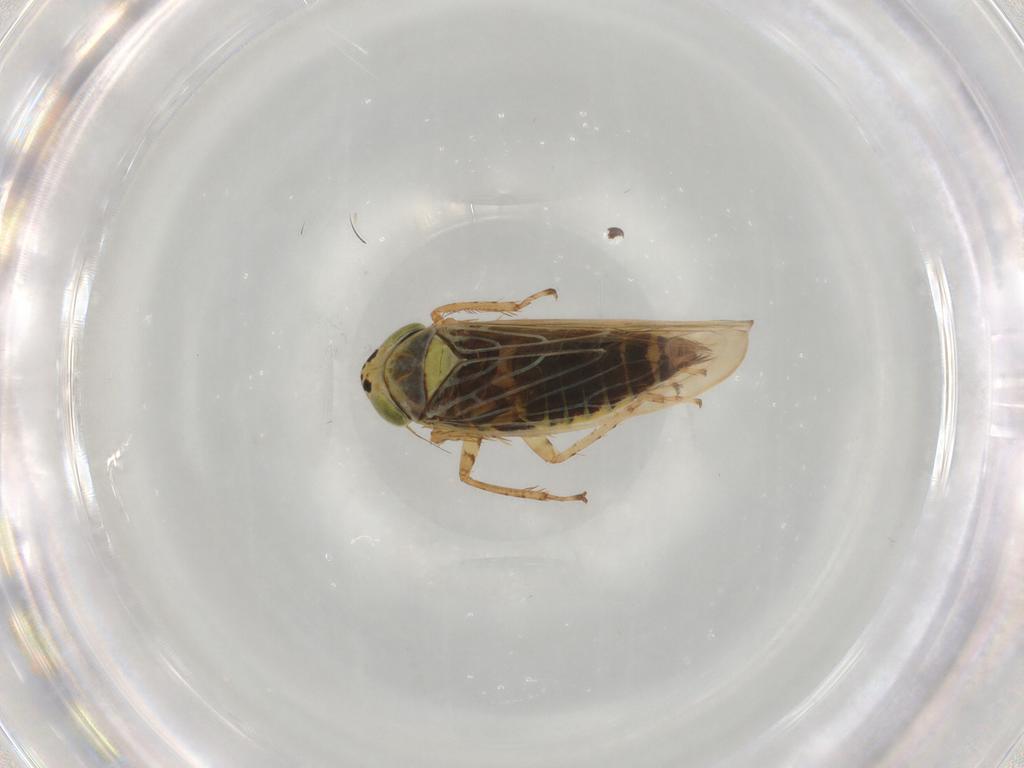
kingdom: Animalia
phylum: Arthropoda
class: Insecta
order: Hemiptera
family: Cicadellidae
